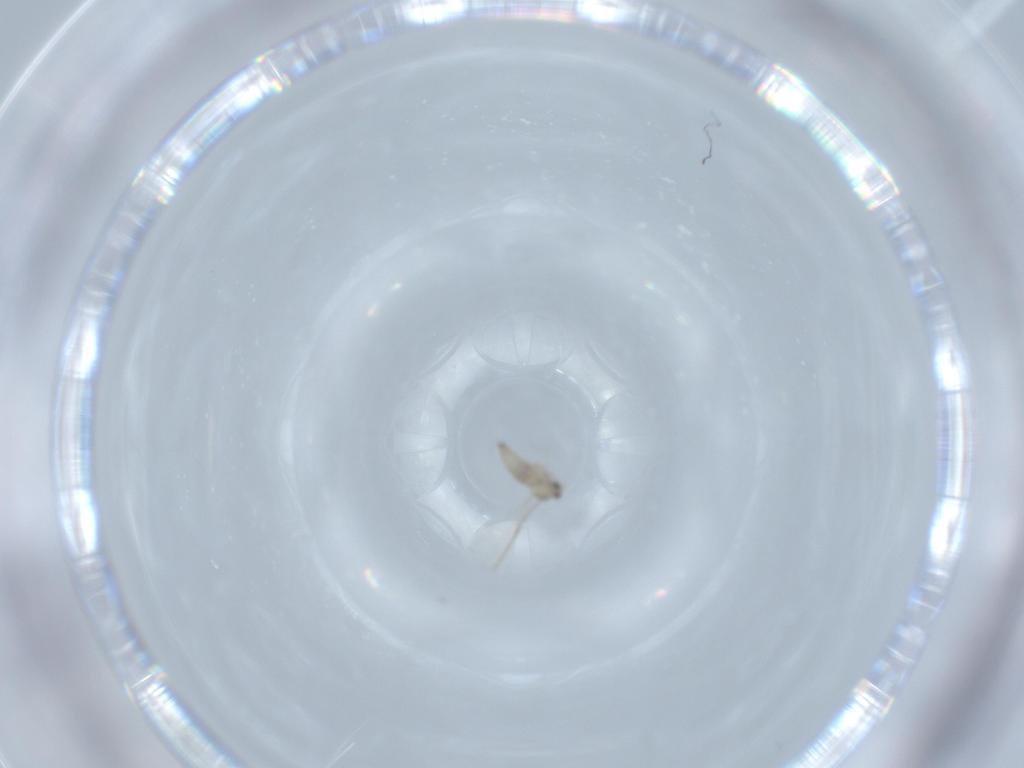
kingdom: Animalia
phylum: Arthropoda
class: Insecta
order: Diptera
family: Cecidomyiidae
